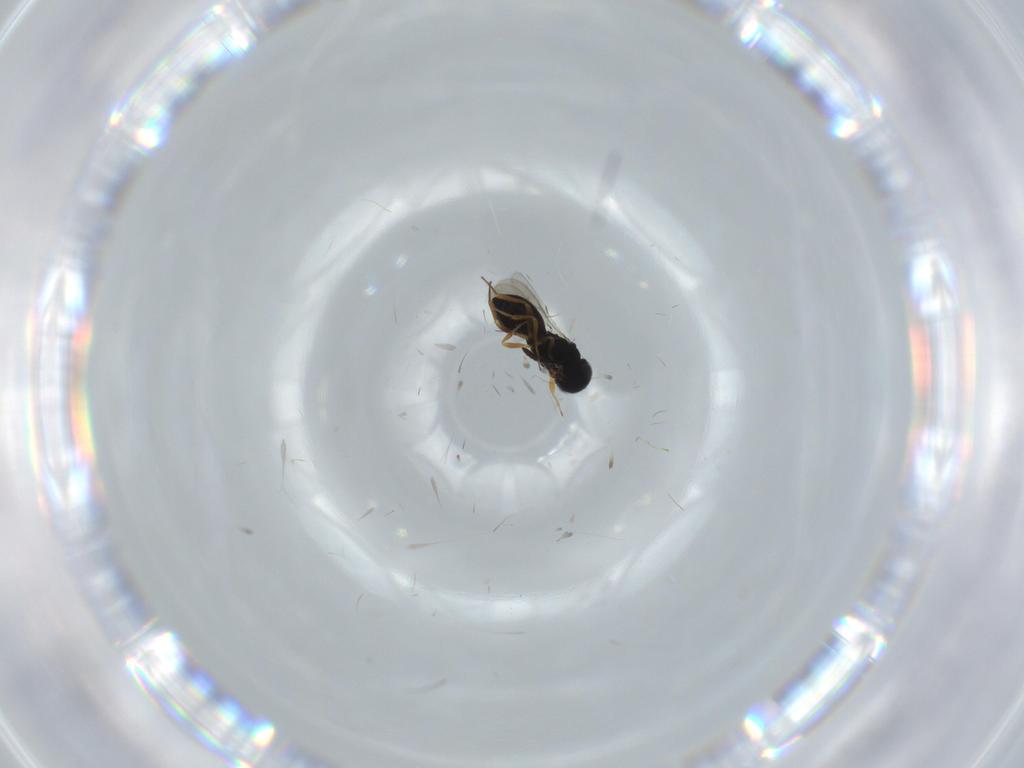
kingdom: Animalia
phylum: Arthropoda
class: Insecta
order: Hymenoptera
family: Scelionidae
